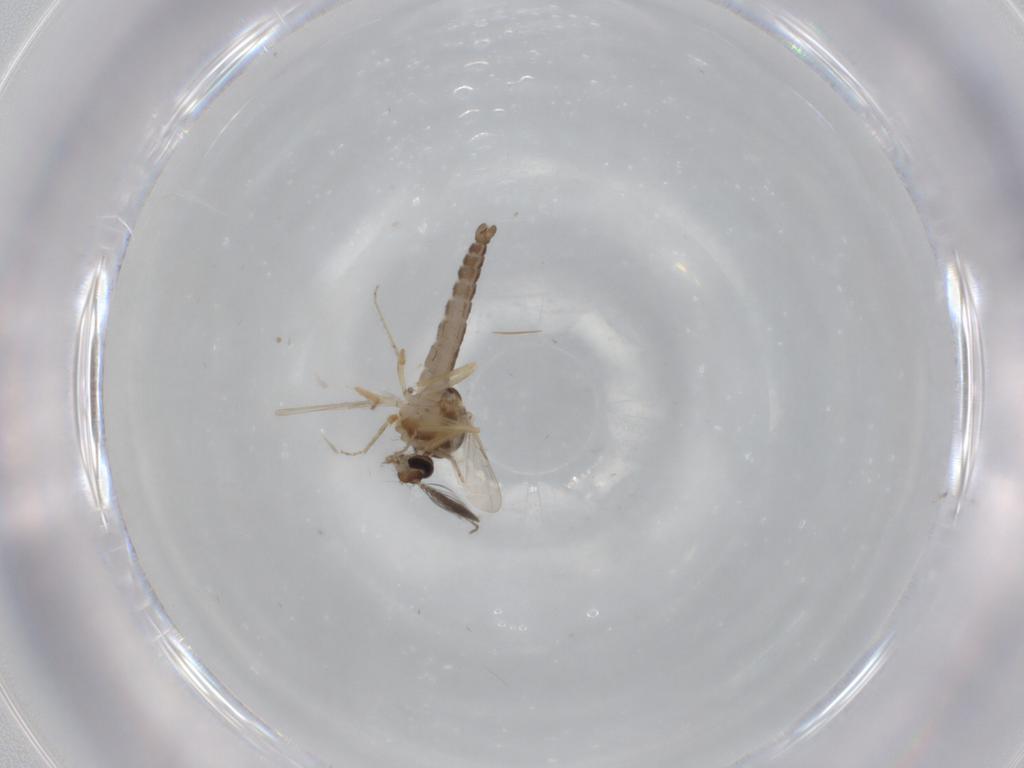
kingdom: Animalia
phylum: Arthropoda
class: Insecta
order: Diptera
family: Ceratopogonidae
